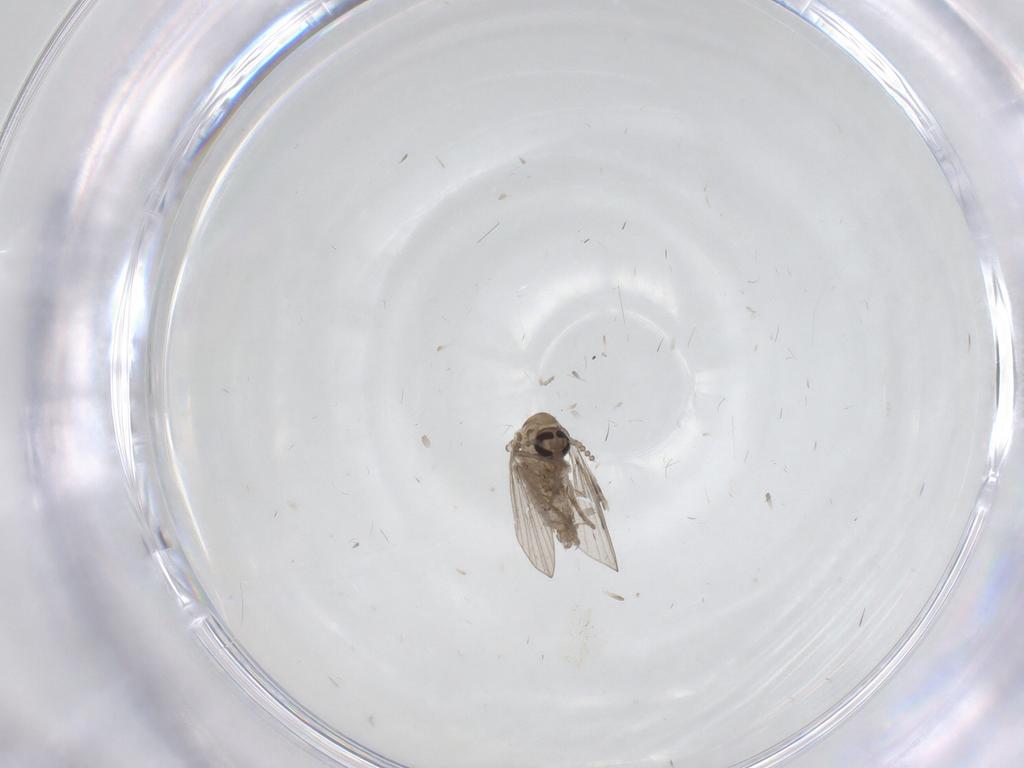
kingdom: Animalia
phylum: Arthropoda
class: Insecta
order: Diptera
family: Psychodidae
